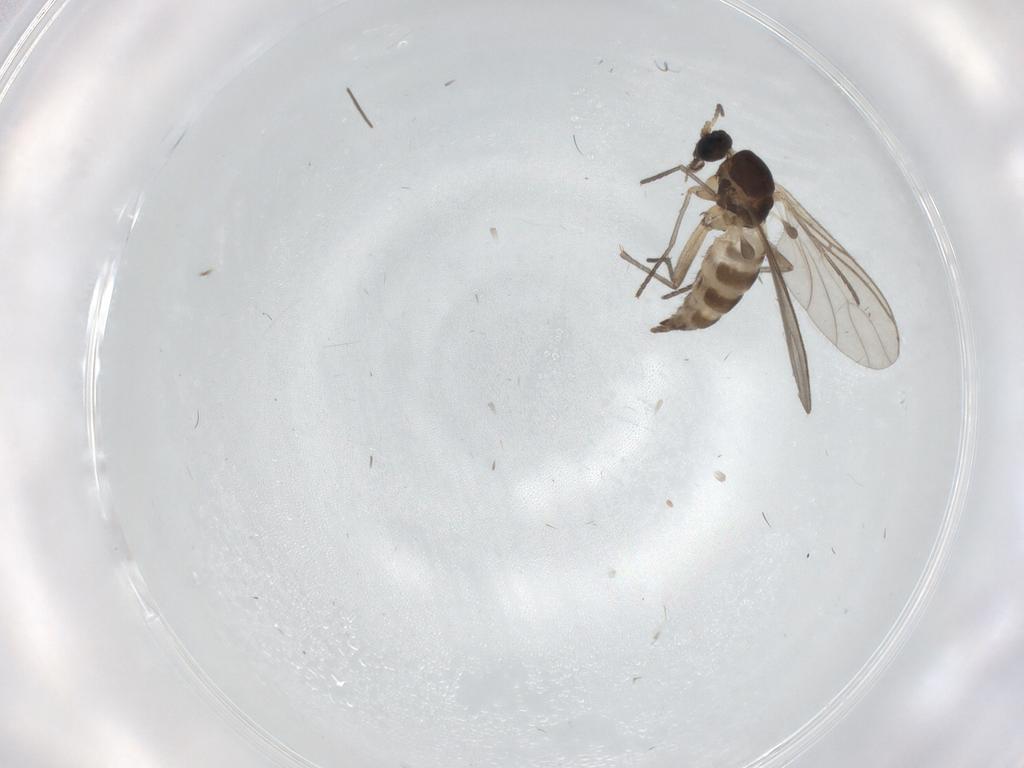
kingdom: Animalia
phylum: Arthropoda
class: Insecta
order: Diptera
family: Sciaridae
